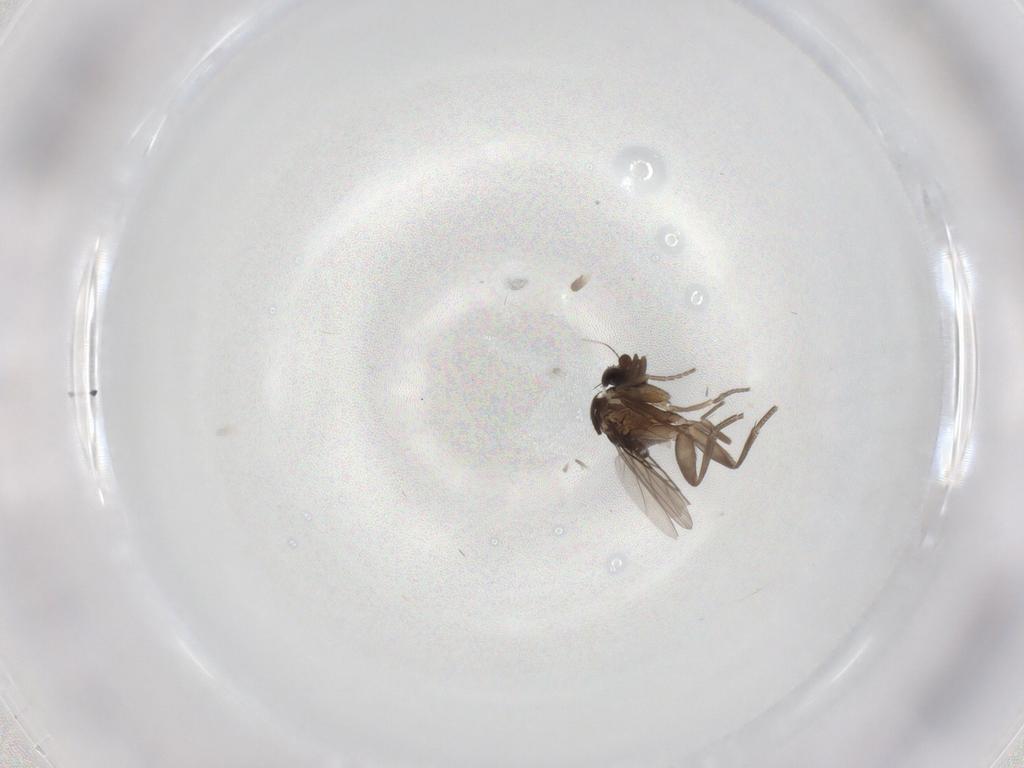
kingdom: Animalia
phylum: Arthropoda
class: Insecta
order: Diptera
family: Phoridae
